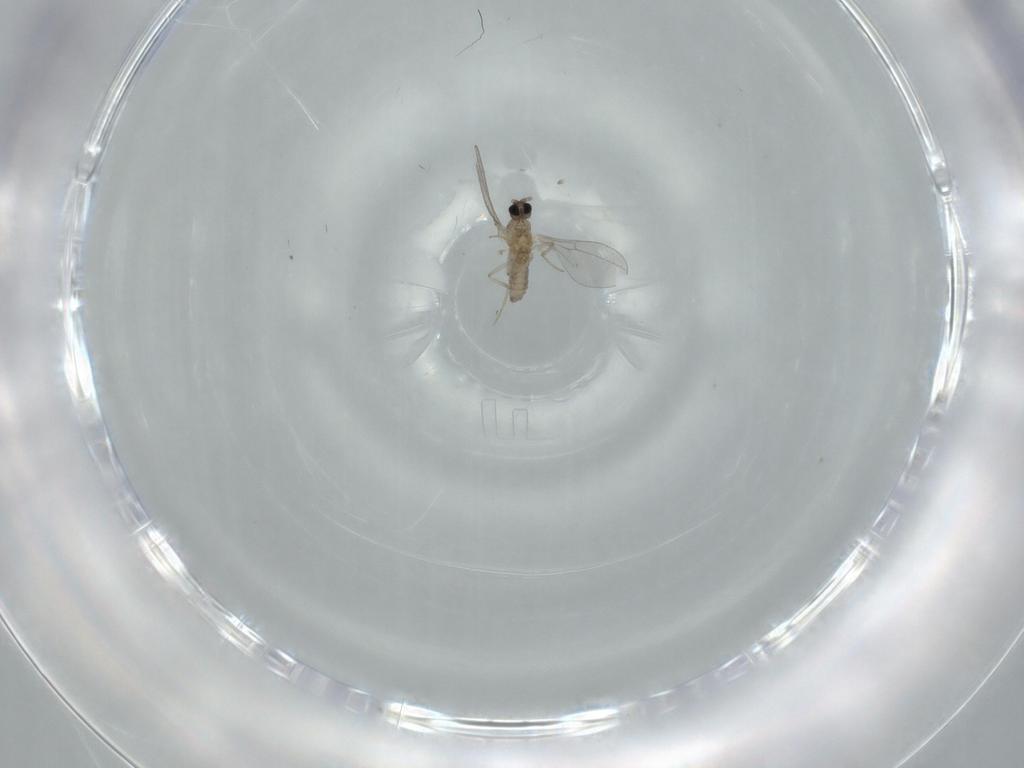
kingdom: Animalia
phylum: Arthropoda
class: Insecta
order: Diptera
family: Cecidomyiidae
